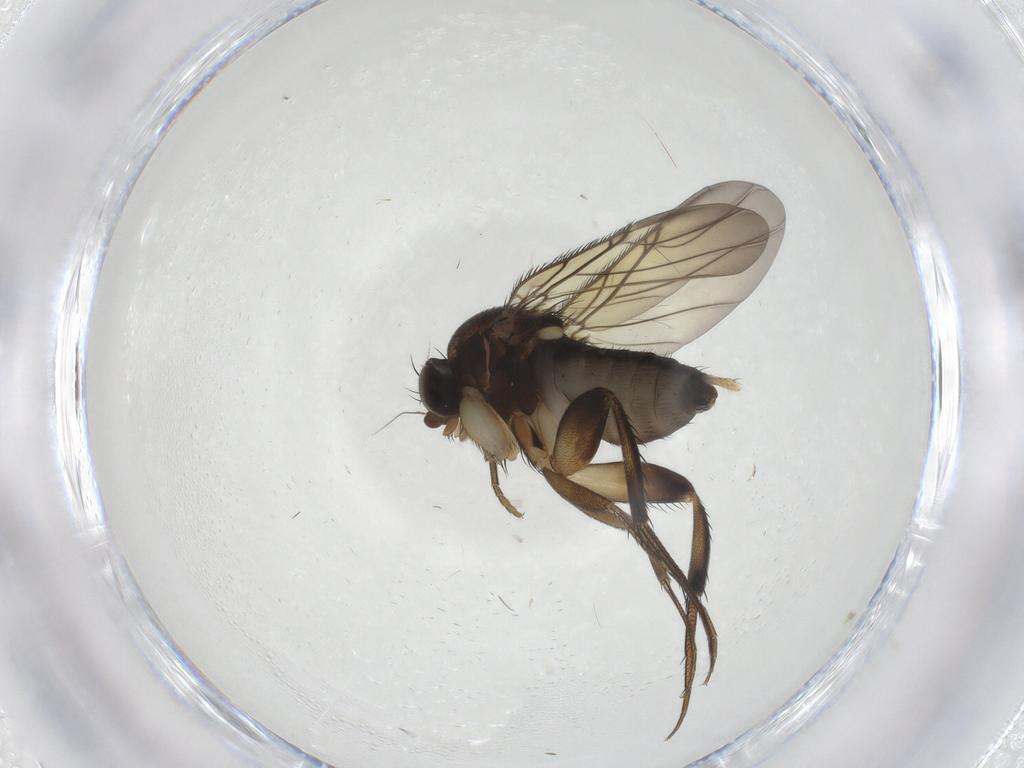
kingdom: Animalia
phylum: Arthropoda
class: Insecta
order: Diptera
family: Phoridae
